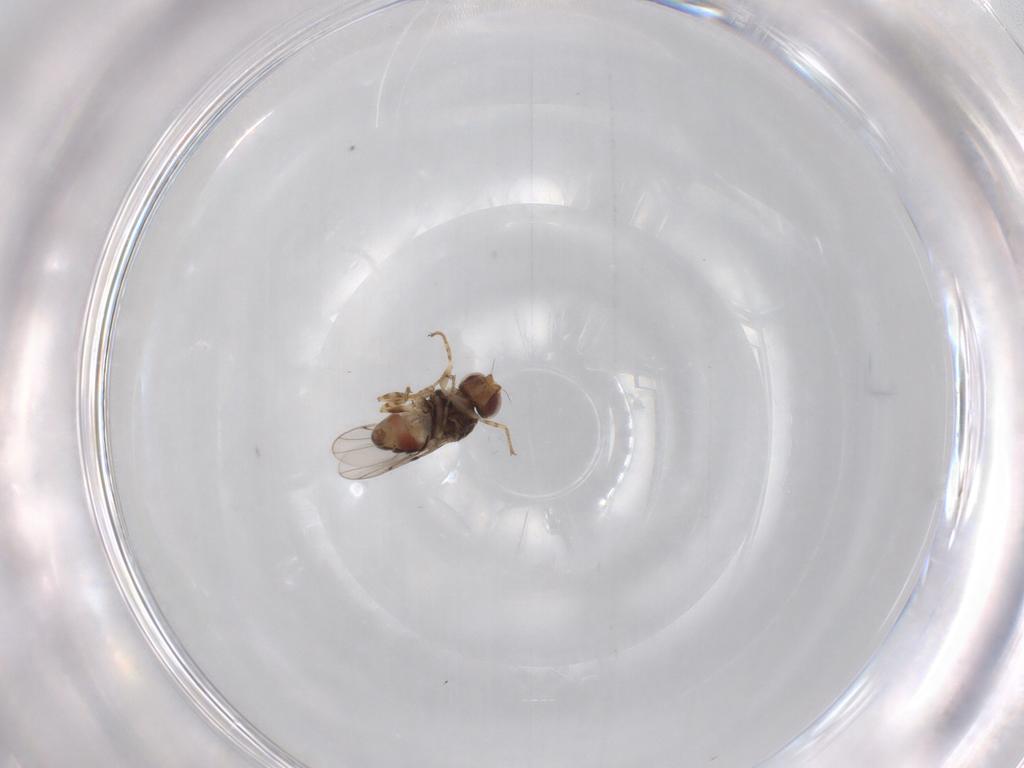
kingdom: Animalia
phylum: Arthropoda
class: Insecta
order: Diptera
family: Chloropidae
